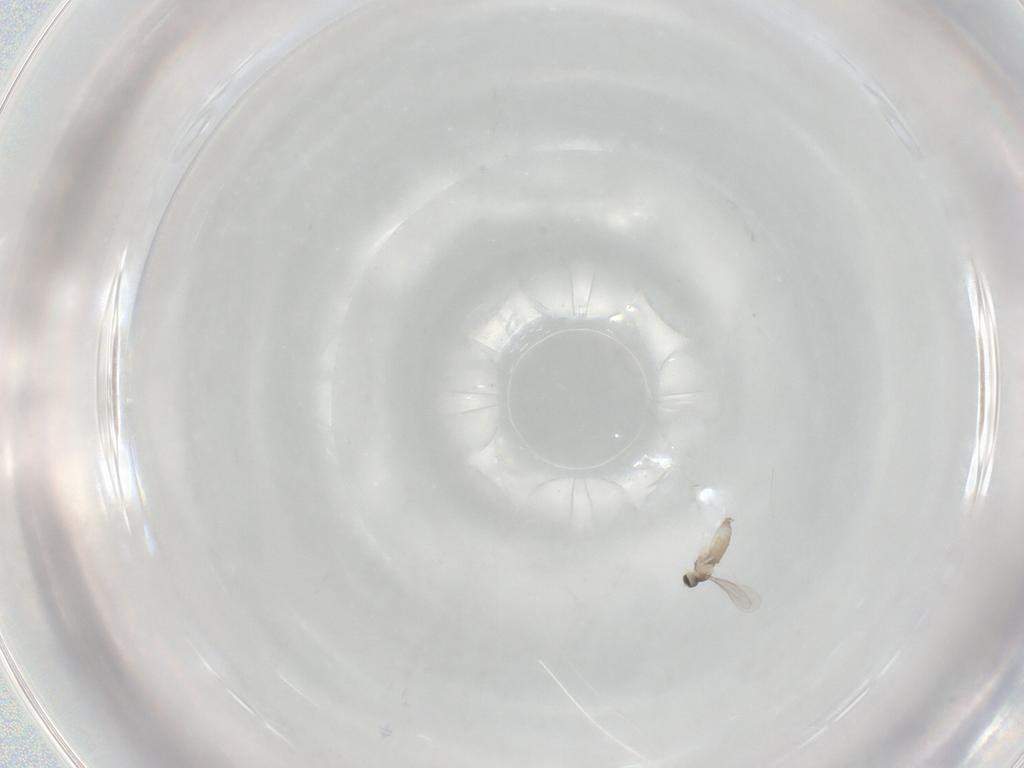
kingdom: Animalia
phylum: Arthropoda
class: Insecta
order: Diptera
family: Cecidomyiidae
